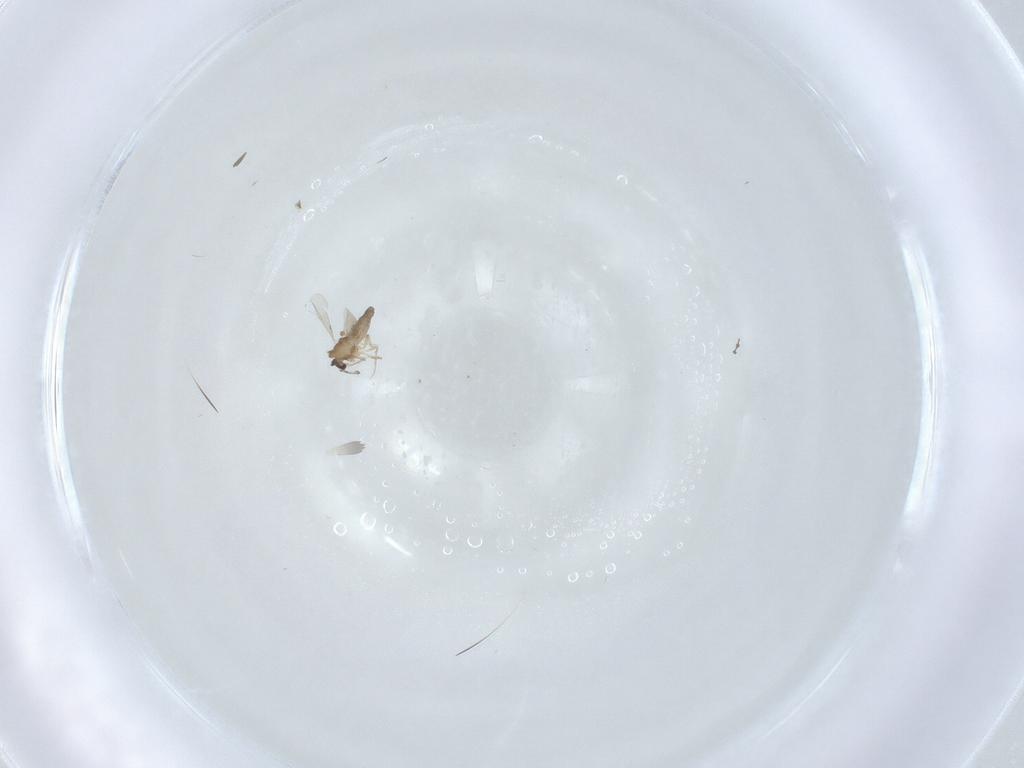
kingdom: Animalia
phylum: Arthropoda
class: Insecta
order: Diptera
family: Ceratopogonidae
